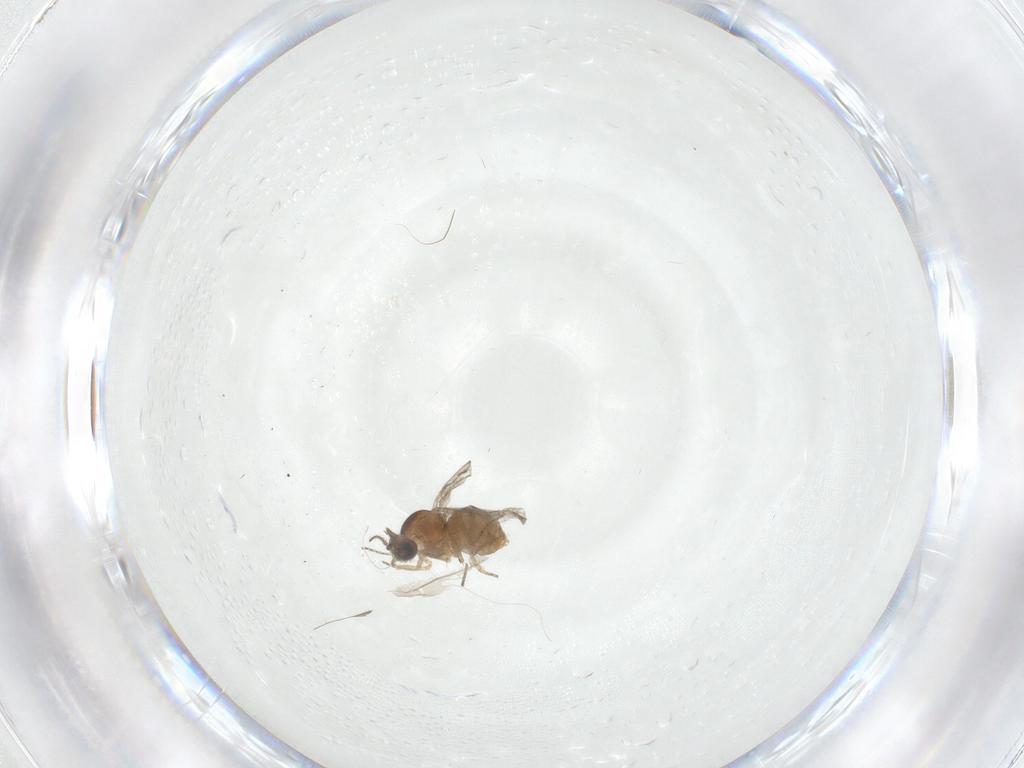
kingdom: Animalia
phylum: Arthropoda
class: Insecta
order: Diptera
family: Ceratopogonidae
